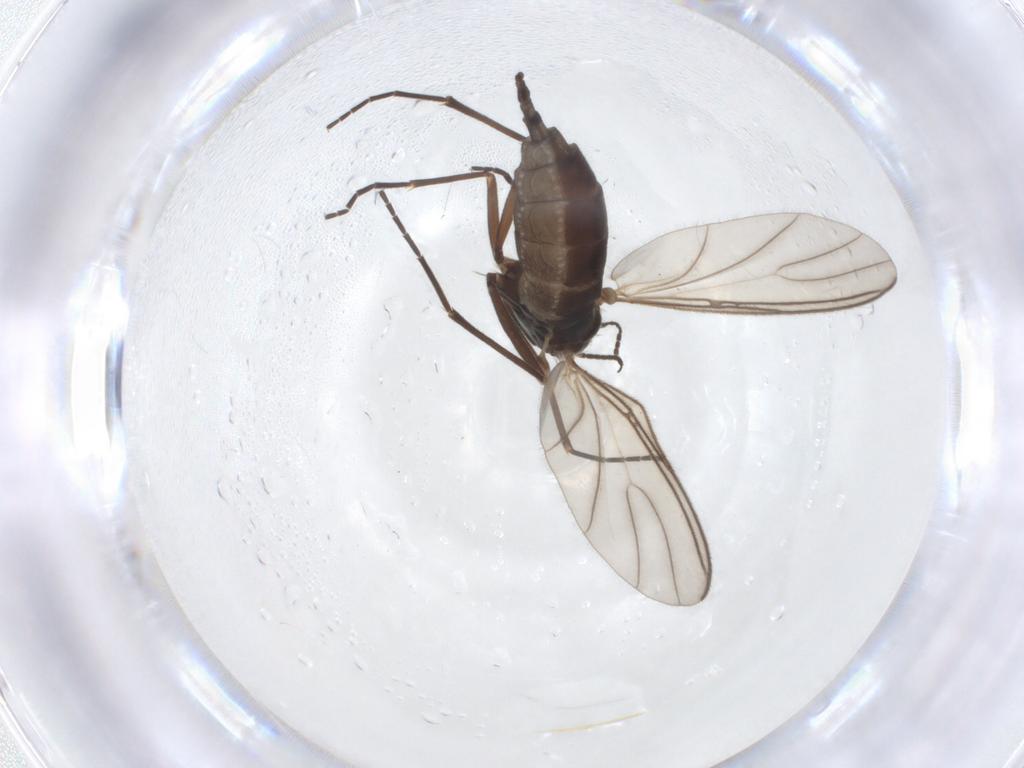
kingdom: Animalia
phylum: Arthropoda
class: Insecta
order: Diptera
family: Sciaridae
